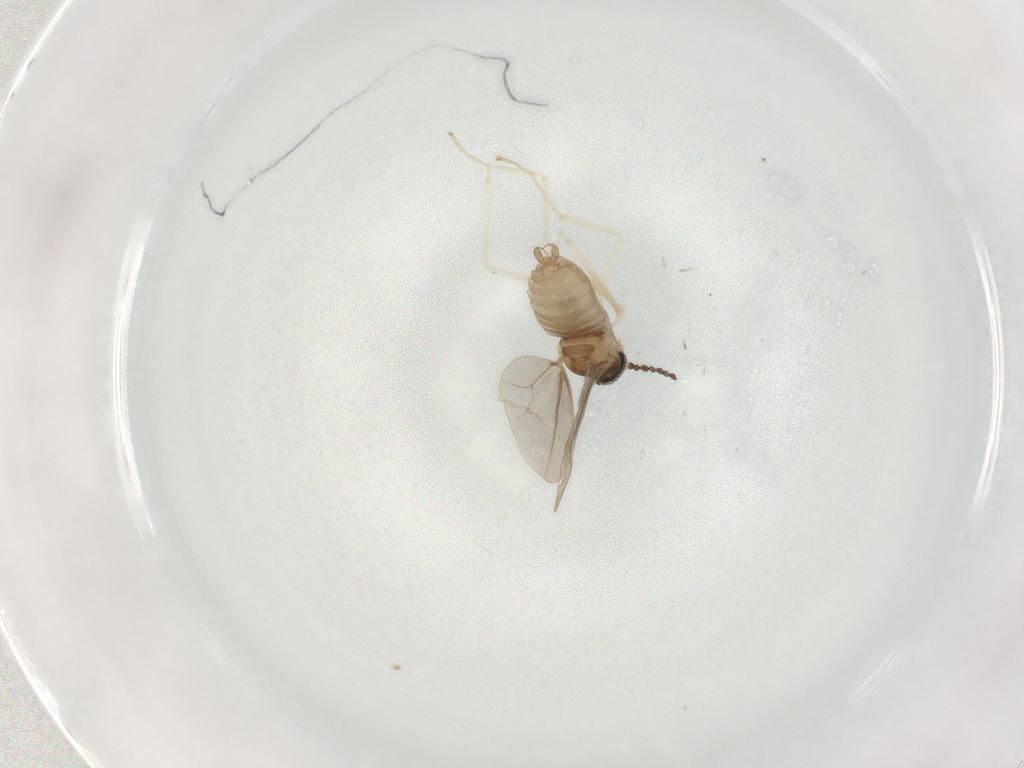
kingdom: Animalia
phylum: Arthropoda
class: Insecta
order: Diptera
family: Tipulidae
